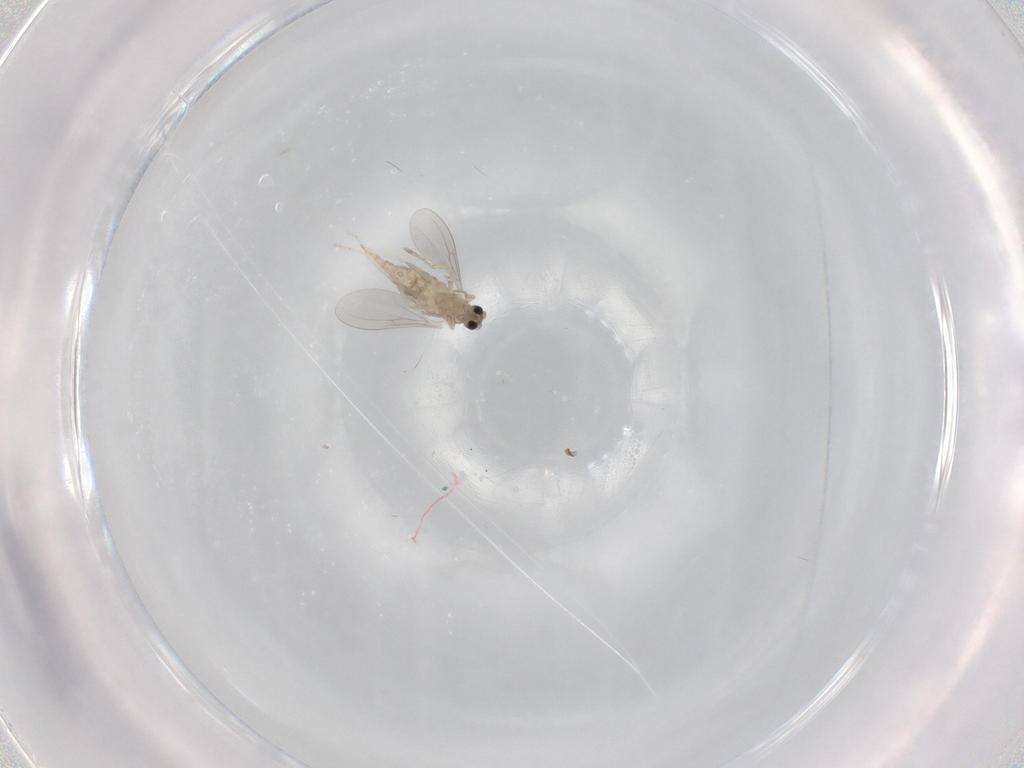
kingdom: Animalia
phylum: Arthropoda
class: Insecta
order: Diptera
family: Cecidomyiidae
